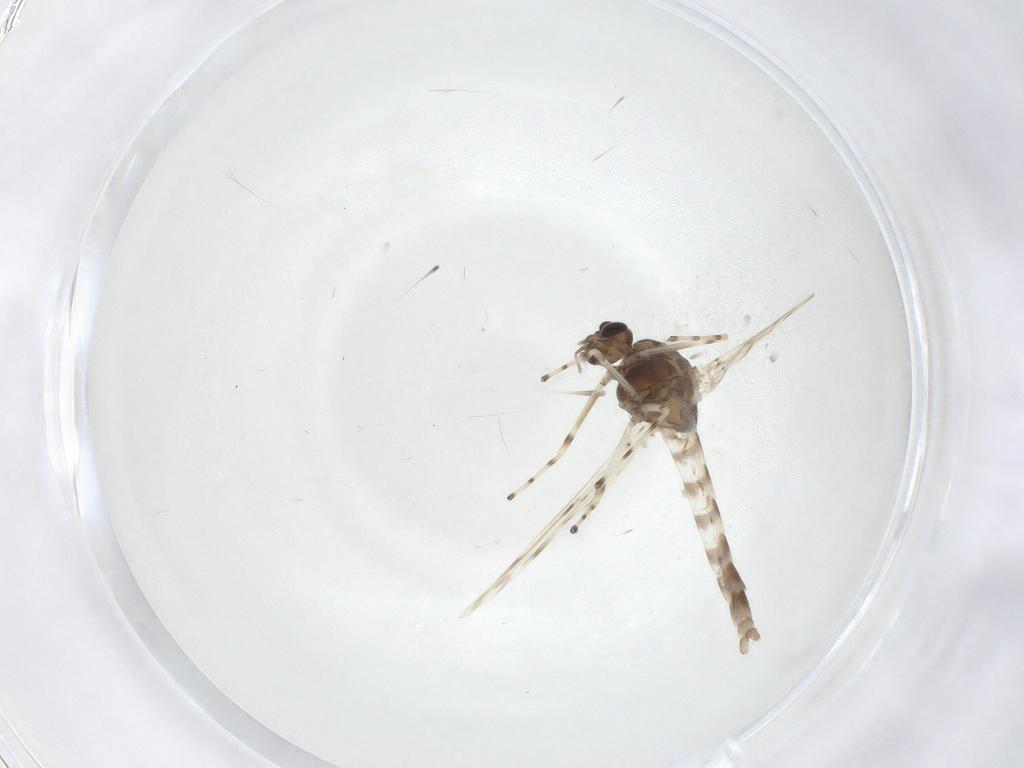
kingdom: Animalia
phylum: Arthropoda
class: Insecta
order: Diptera
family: Chironomidae
